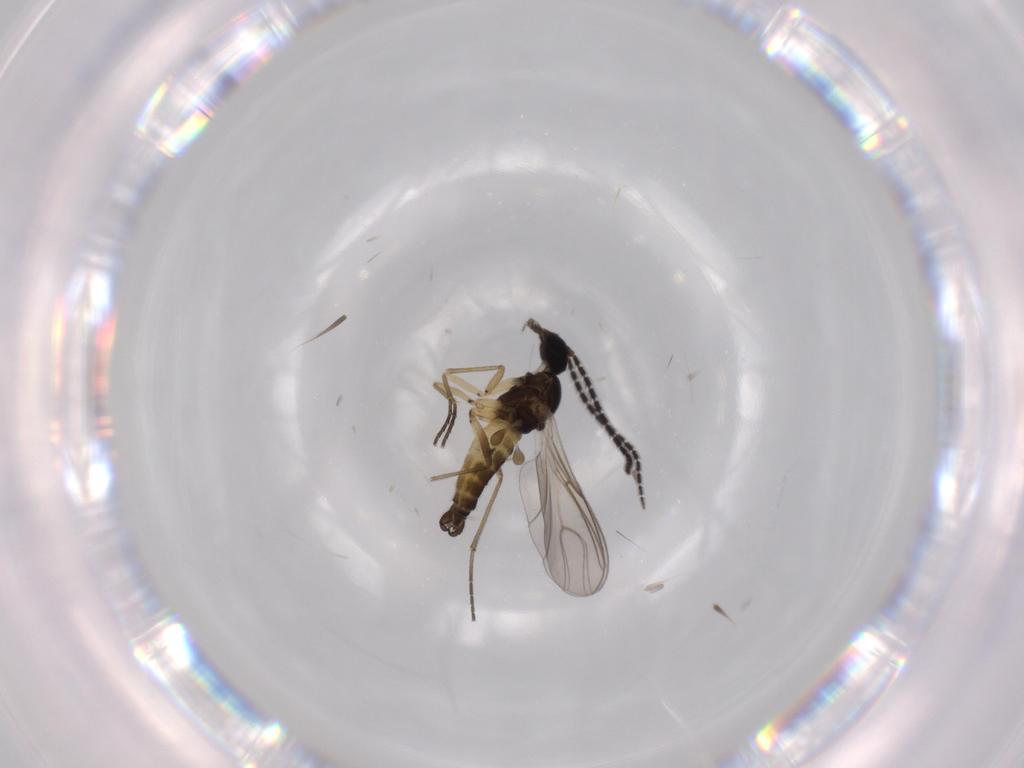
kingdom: Animalia
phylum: Arthropoda
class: Insecta
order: Diptera
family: Sciaridae
